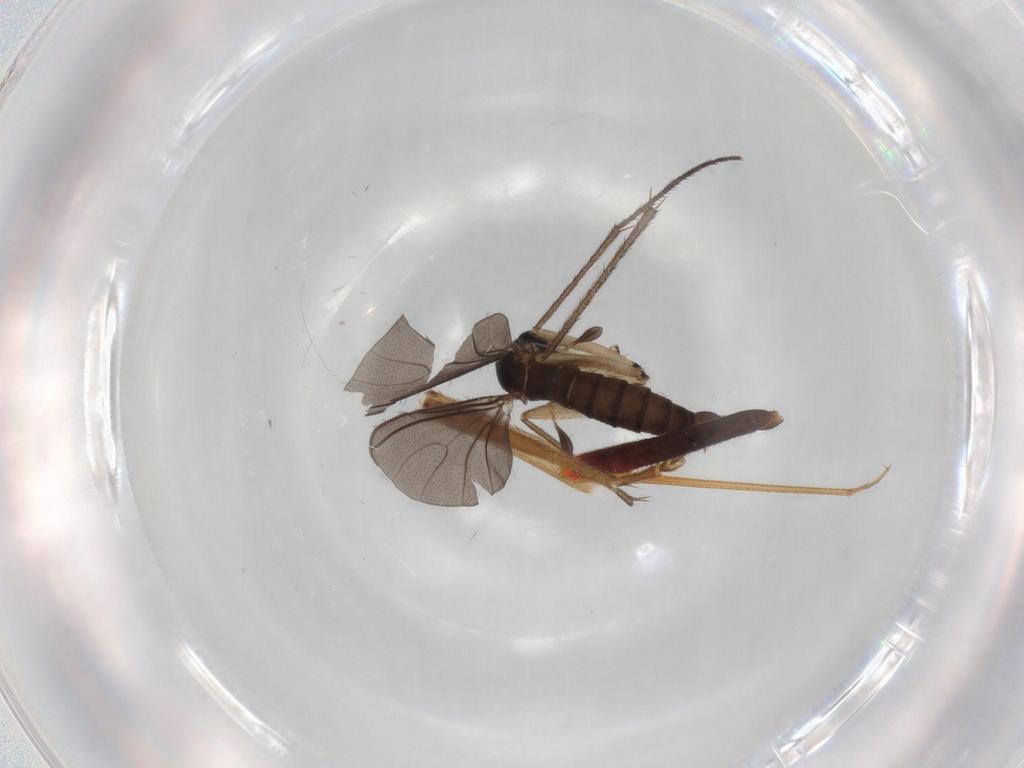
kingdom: Animalia
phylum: Arthropoda
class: Insecta
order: Diptera
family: Sciaridae
